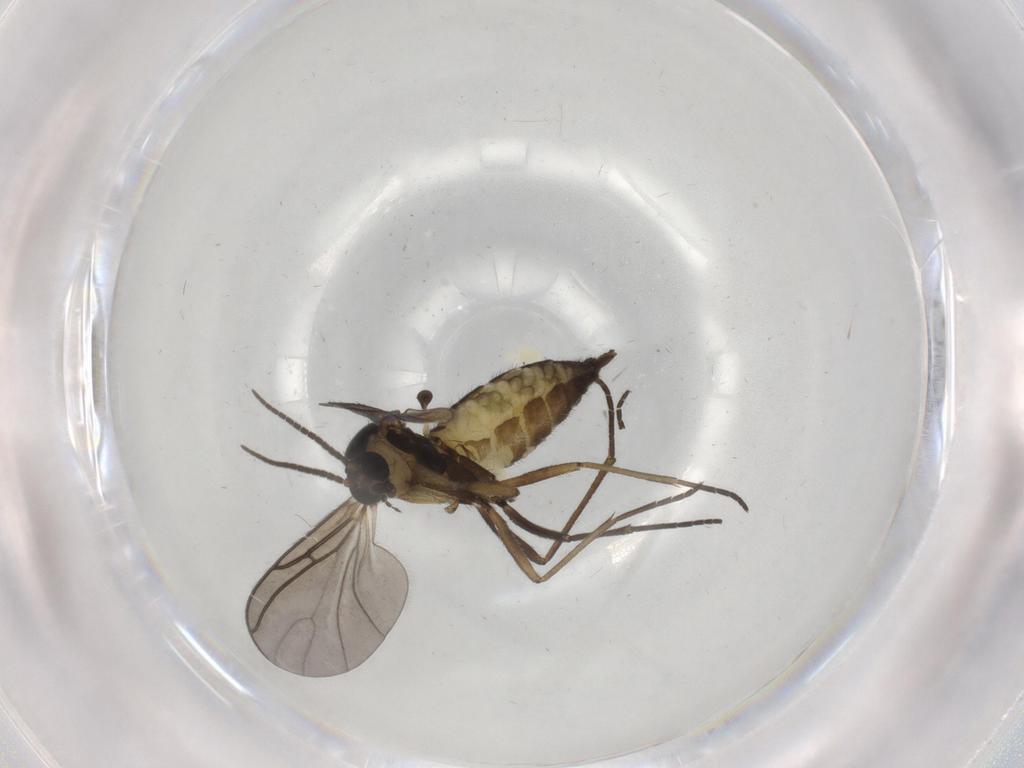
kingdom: Animalia
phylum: Arthropoda
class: Insecta
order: Diptera
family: Sciaridae
